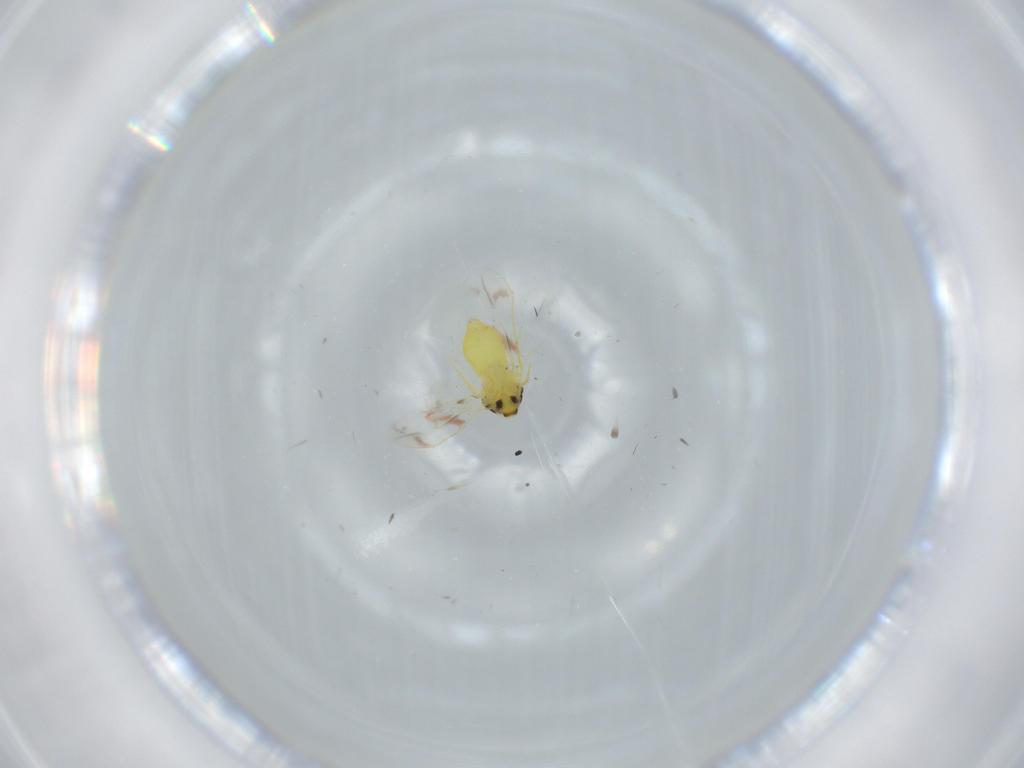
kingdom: Animalia
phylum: Arthropoda
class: Insecta
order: Hemiptera
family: Aleyrodidae
